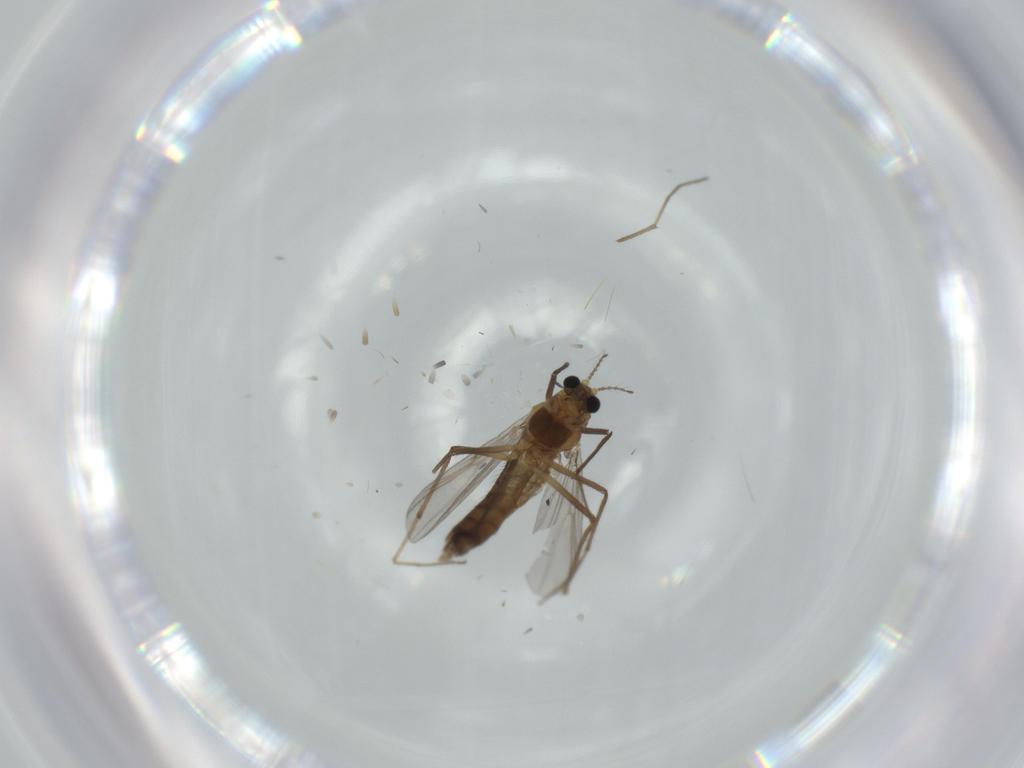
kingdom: Animalia
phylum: Arthropoda
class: Insecta
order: Diptera
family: Chironomidae
